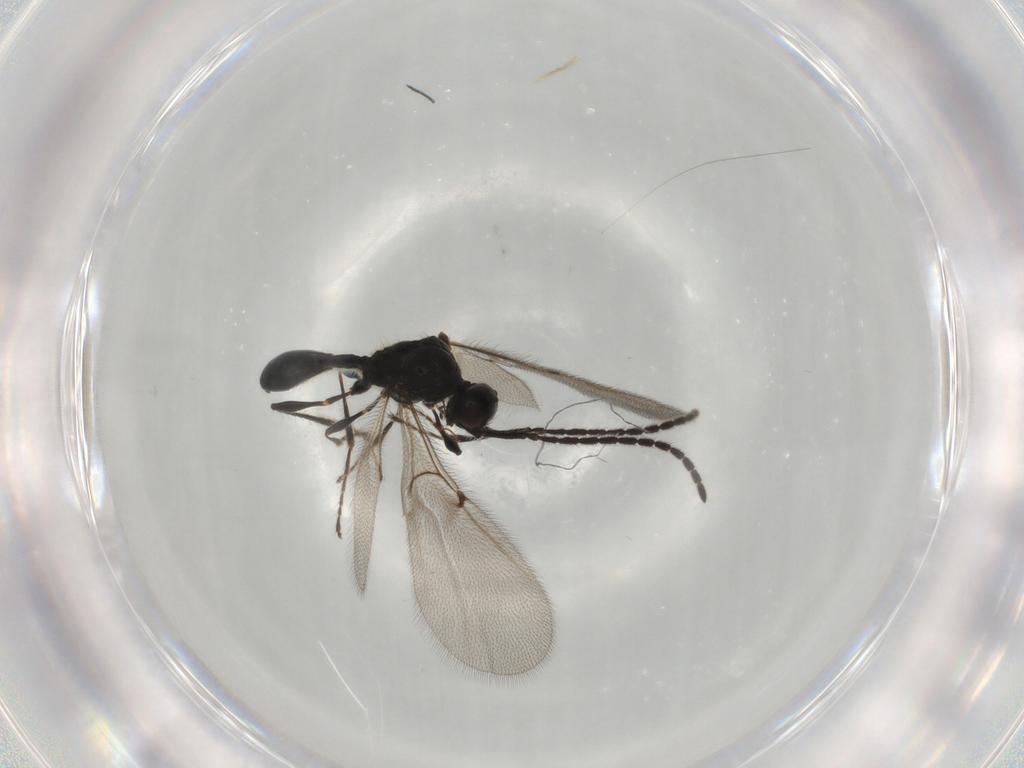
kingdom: Animalia
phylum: Arthropoda
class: Insecta
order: Hymenoptera
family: Diapriidae
